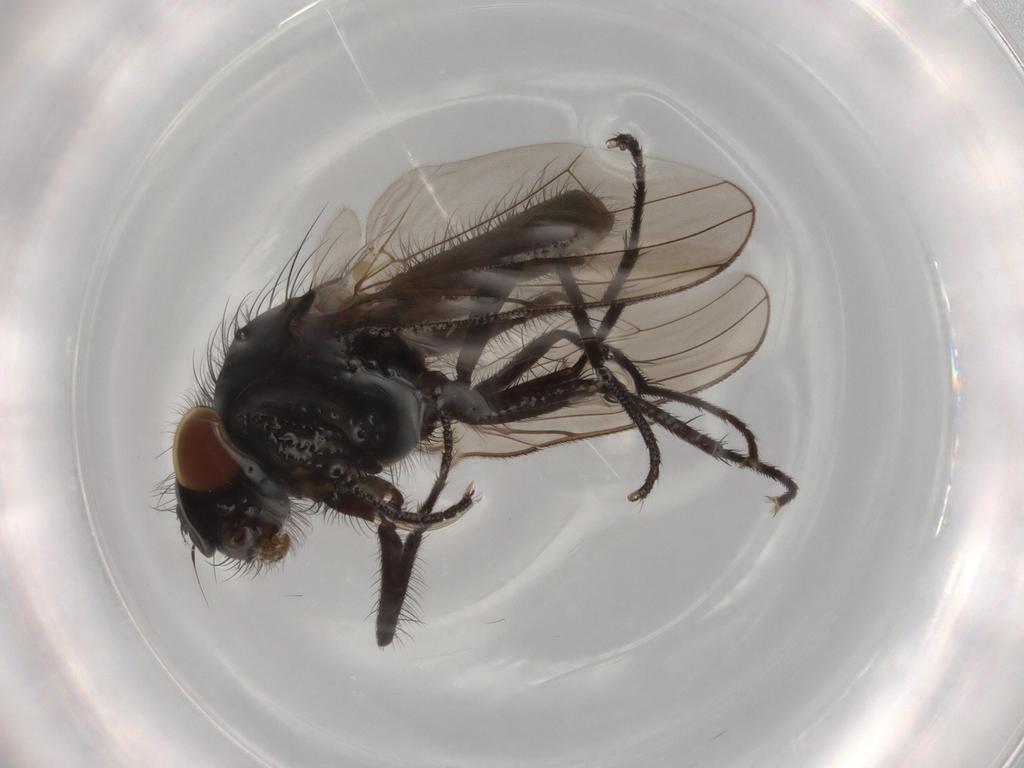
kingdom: Animalia
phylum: Arthropoda
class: Insecta
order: Diptera
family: Anthomyiidae
